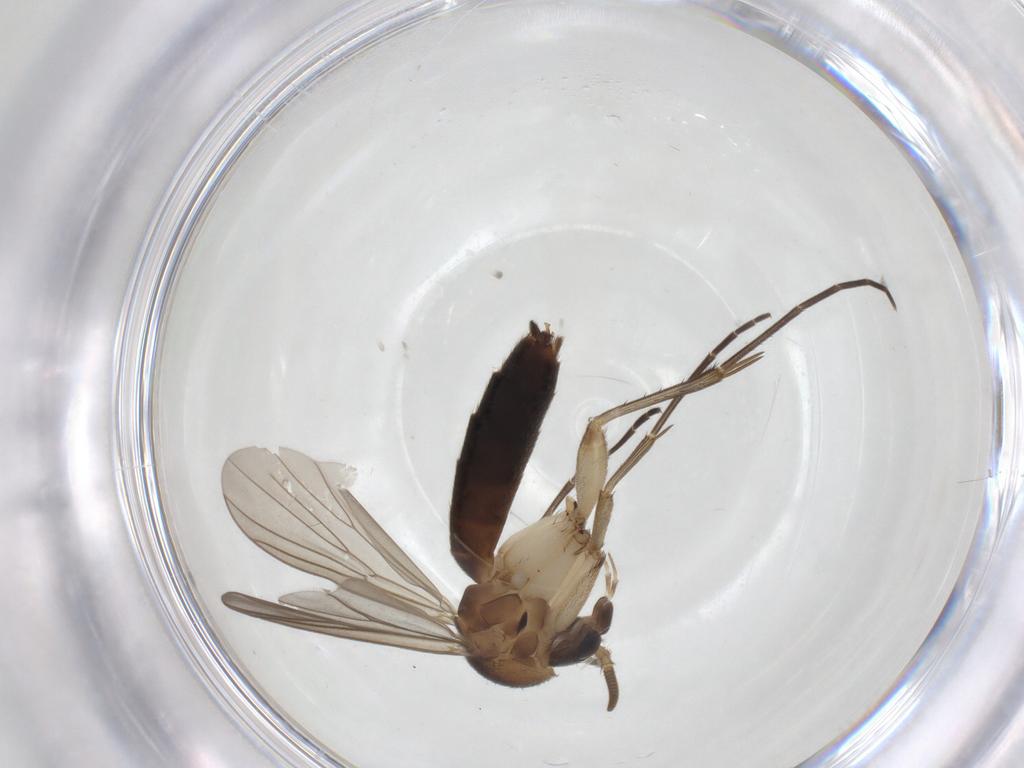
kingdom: Animalia
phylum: Arthropoda
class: Insecta
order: Diptera
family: Mycetophilidae
